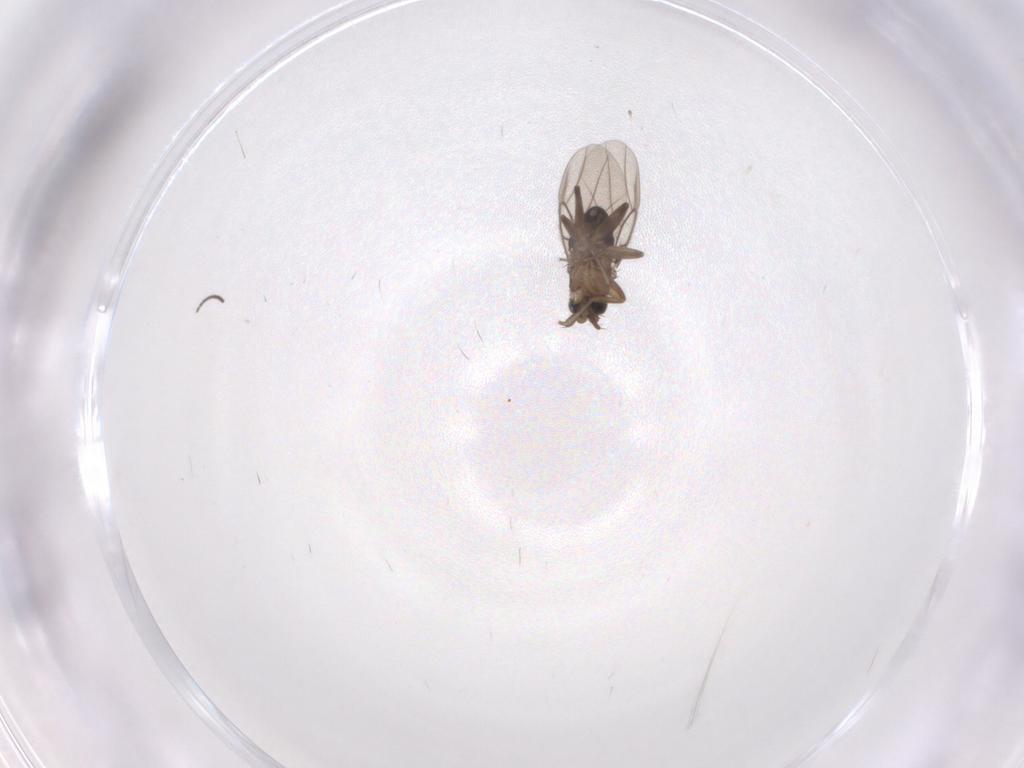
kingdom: Animalia
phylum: Arthropoda
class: Insecta
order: Diptera
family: Phoridae
